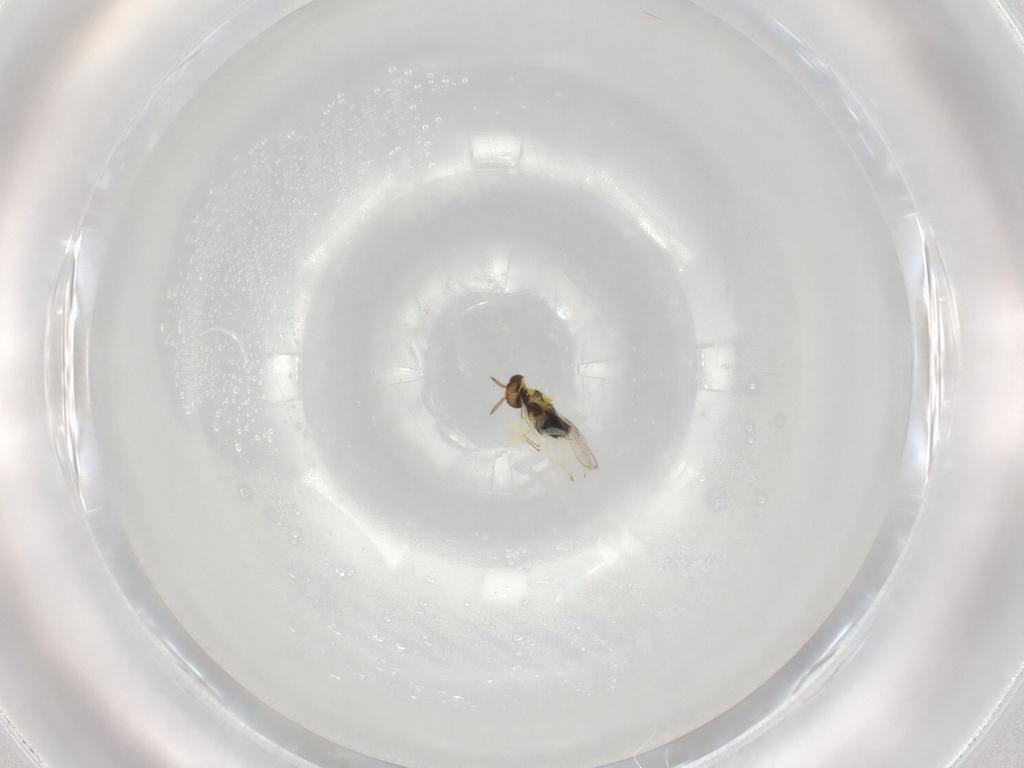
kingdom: Animalia
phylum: Arthropoda
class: Insecta
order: Hymenoptera
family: Aphelinidae
